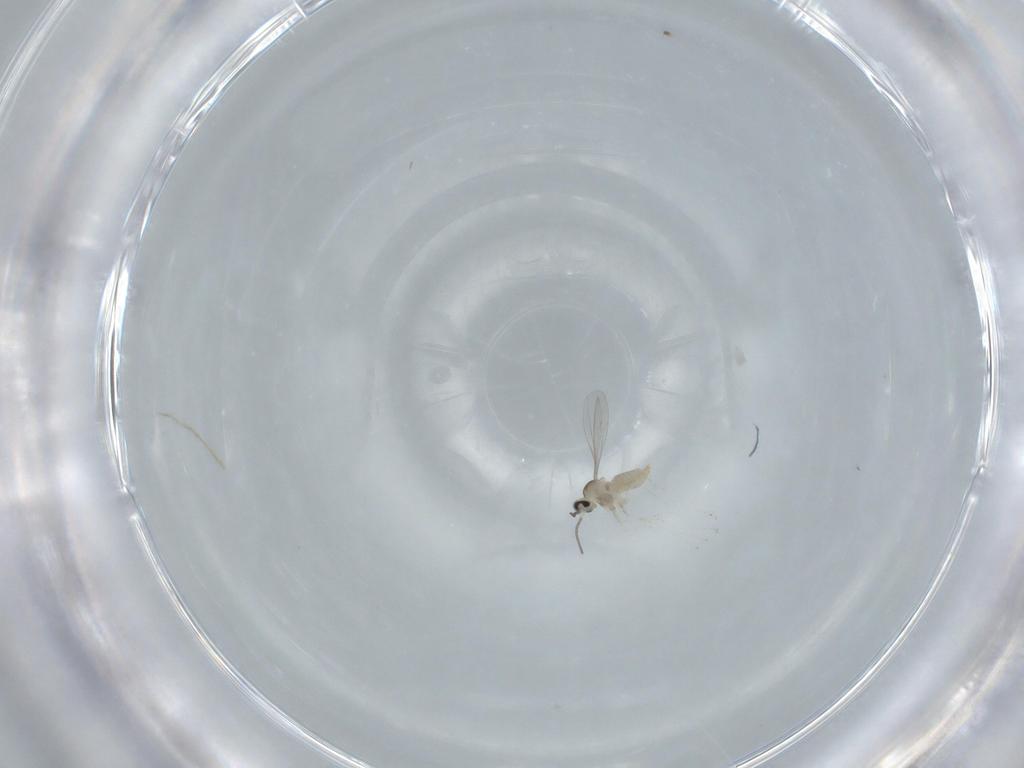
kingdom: Animalia
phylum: Arthropoda
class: Insecta
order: Diptera
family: Cecidomyiidae
